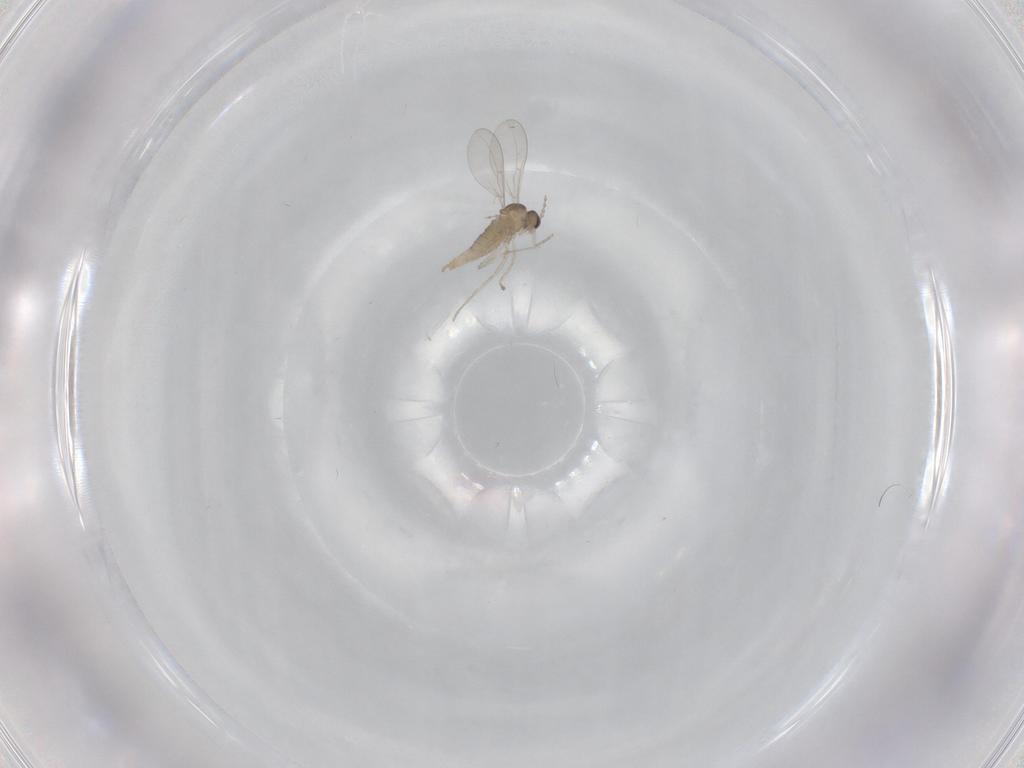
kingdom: Animalia
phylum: Arthropoda
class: Insecta
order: Diptera
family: Cecidomyiidae
